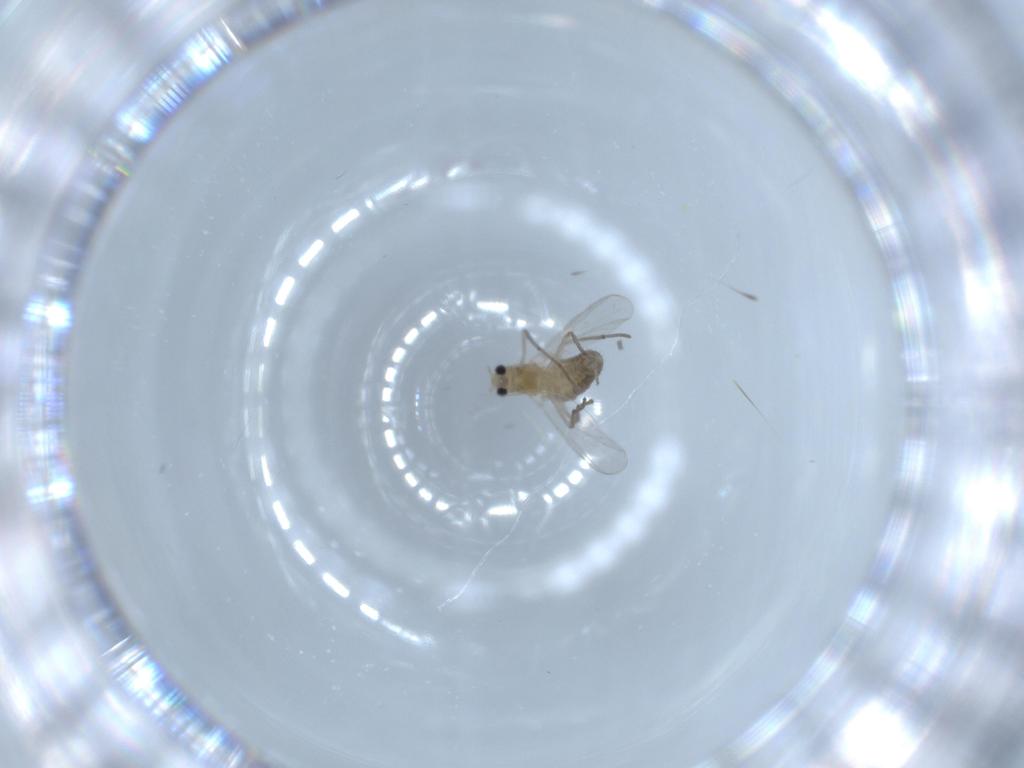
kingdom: Animalia
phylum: Arthropoda
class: Insecta
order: Diptera
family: Chironomidae
